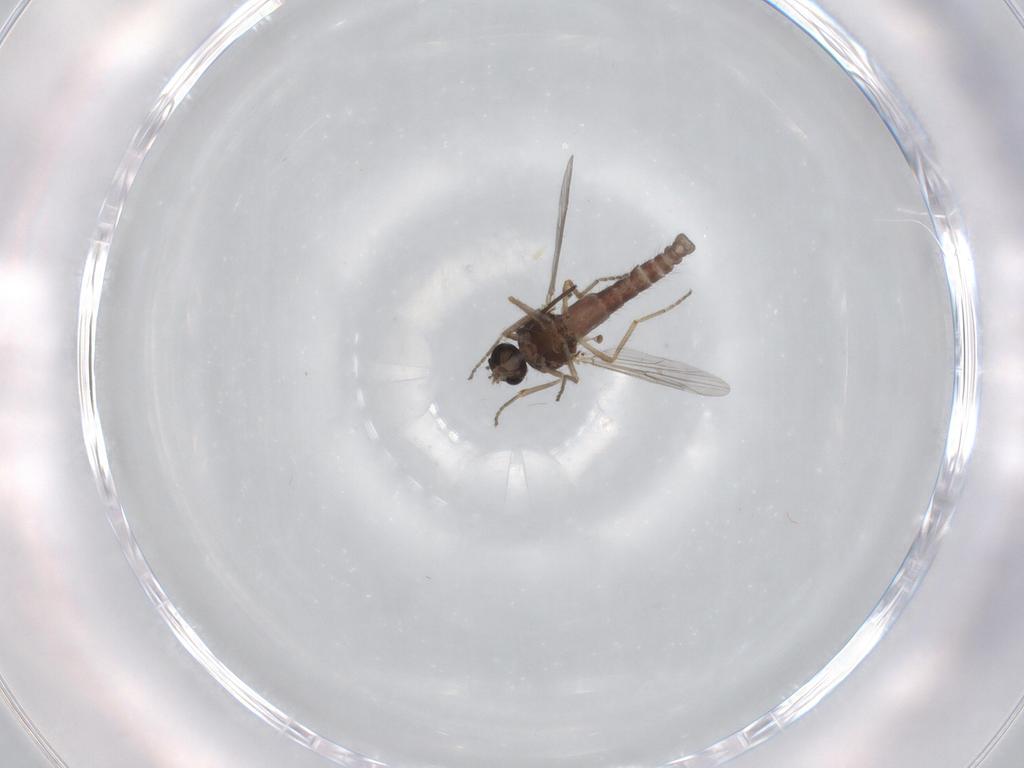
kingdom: Animalia
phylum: Arthropoda
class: Insecta
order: Diptera
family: Ceratopogonidae
